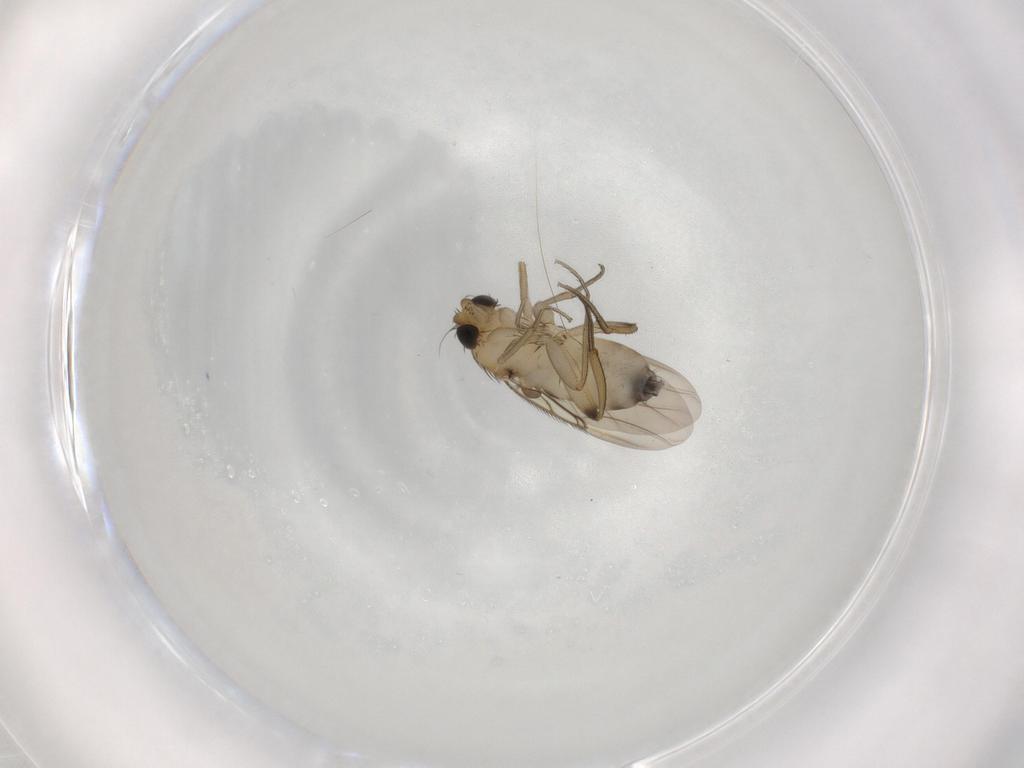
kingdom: Animalia
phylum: Arthropoda
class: Insecta
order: Diptera
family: Phoridae
